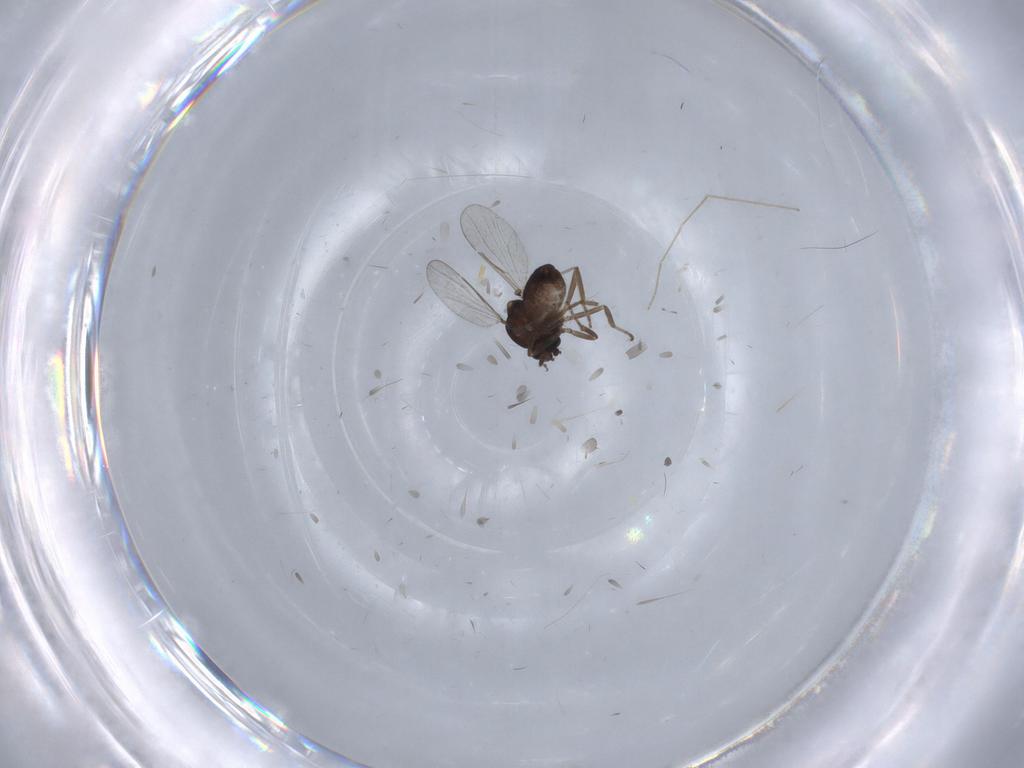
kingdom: Animalia
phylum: Arthropoda
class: Insecta
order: Diptera
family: Chironomidae
